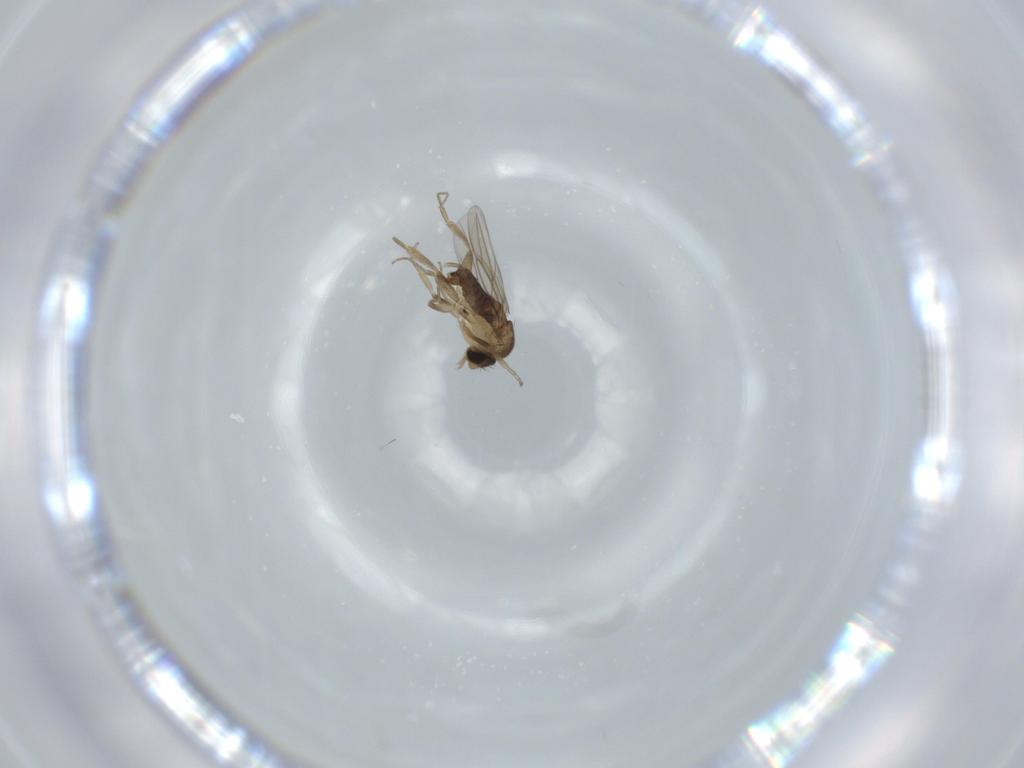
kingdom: Animalia
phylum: Arthropoda
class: Insecta
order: Diptera
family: Phoridae
